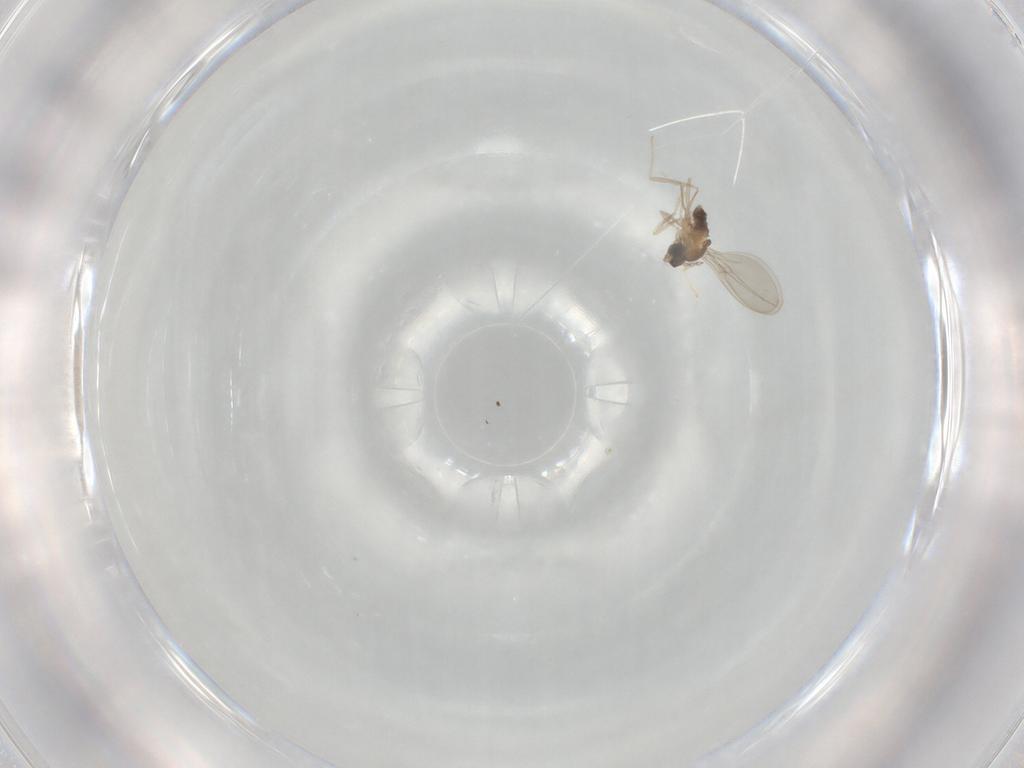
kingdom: Animalia
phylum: Arthropoda
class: Insecta
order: Diptera
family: Cecidomyiidae
